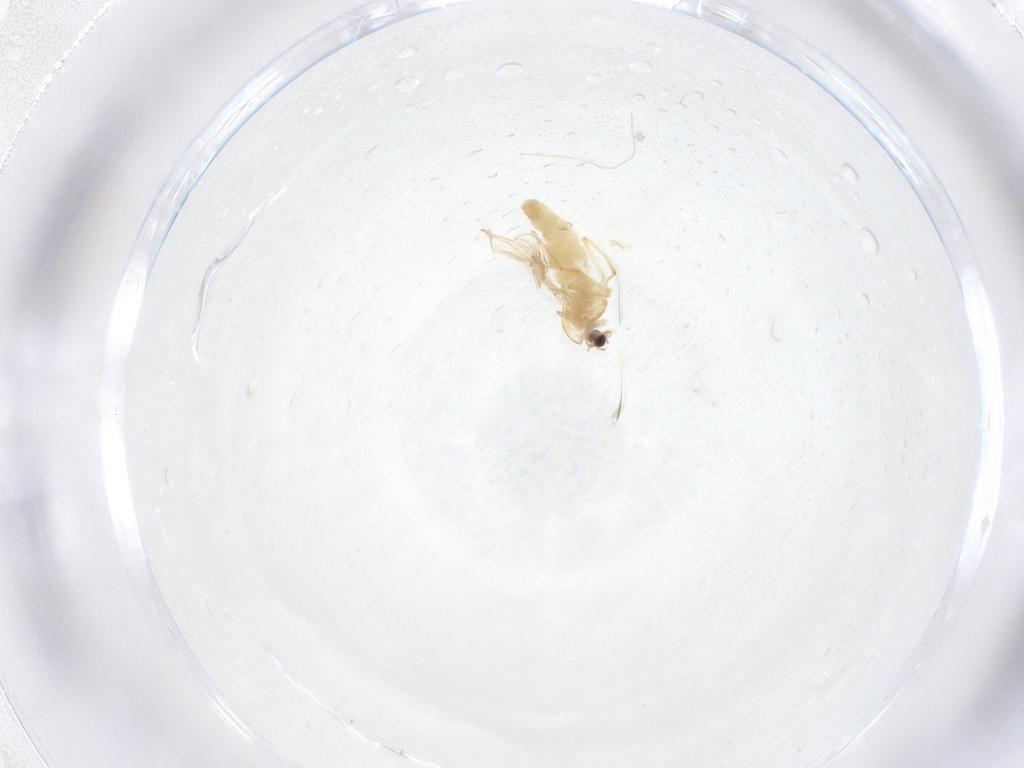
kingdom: Animalia
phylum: Arthropoda
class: Insecta
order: Diptera
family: Chironomidae
